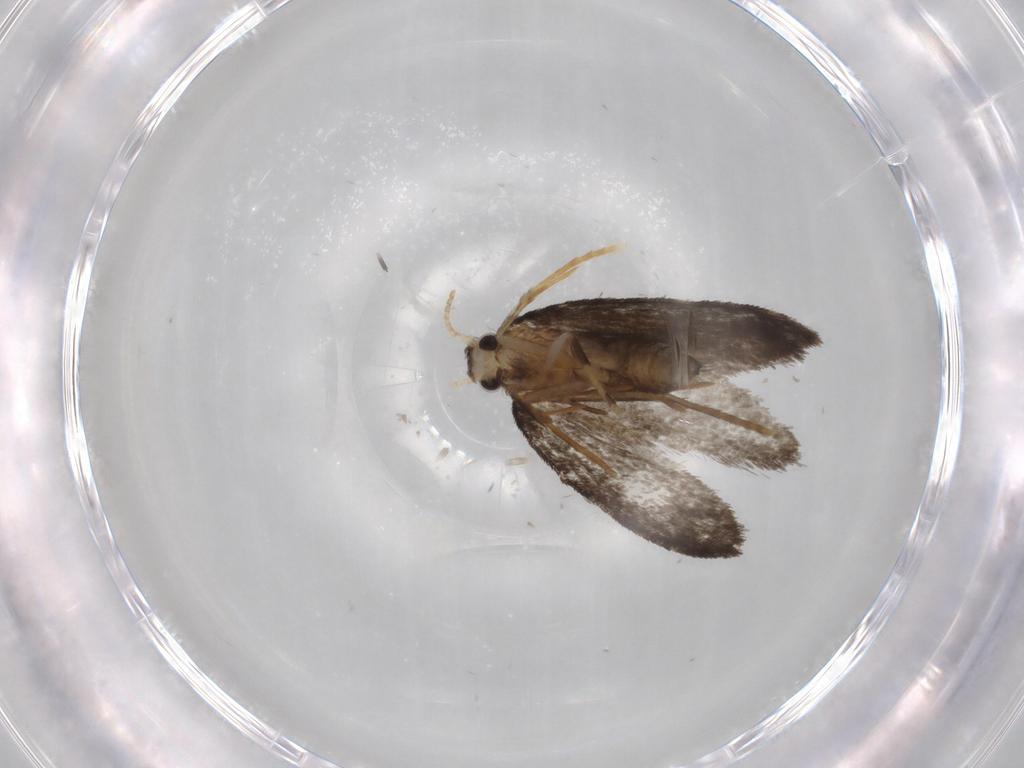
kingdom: Animalia
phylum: Arthropoda
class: Insecta
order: Lepidoptera
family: Psychidae
